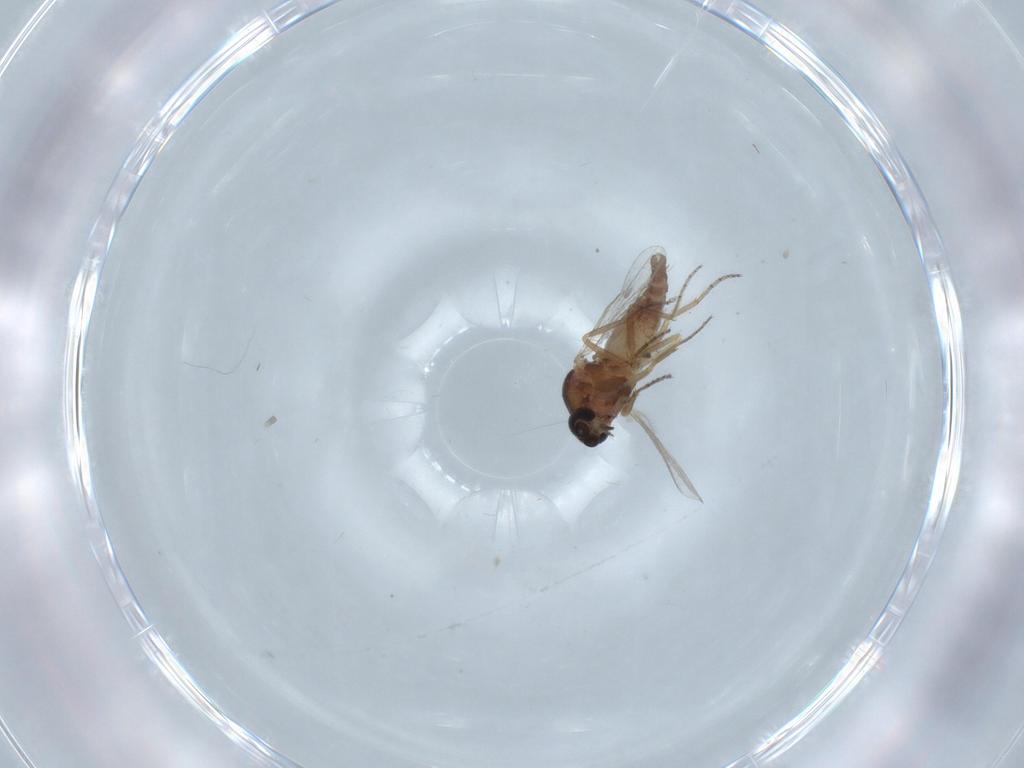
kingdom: Animalia
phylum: Arthropoda
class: Insecta
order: Diptera
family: Ceratopogonidae
